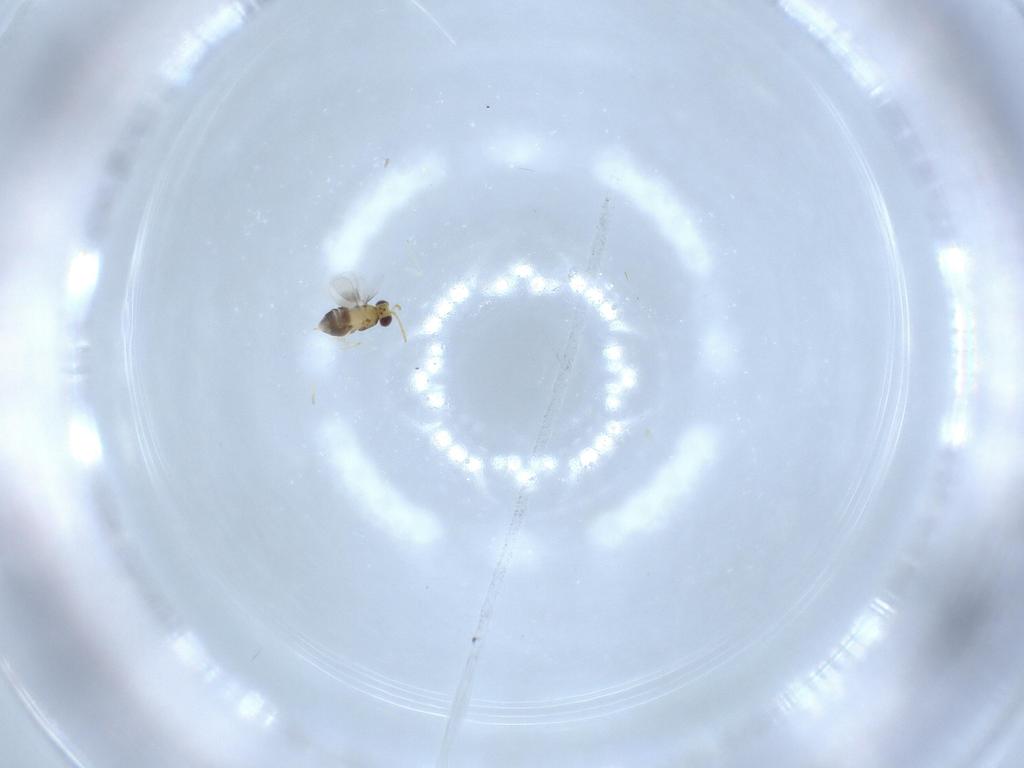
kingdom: Animalia
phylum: Arthropoda
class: Insecta
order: Hymenoptera
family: Aphelinidae
